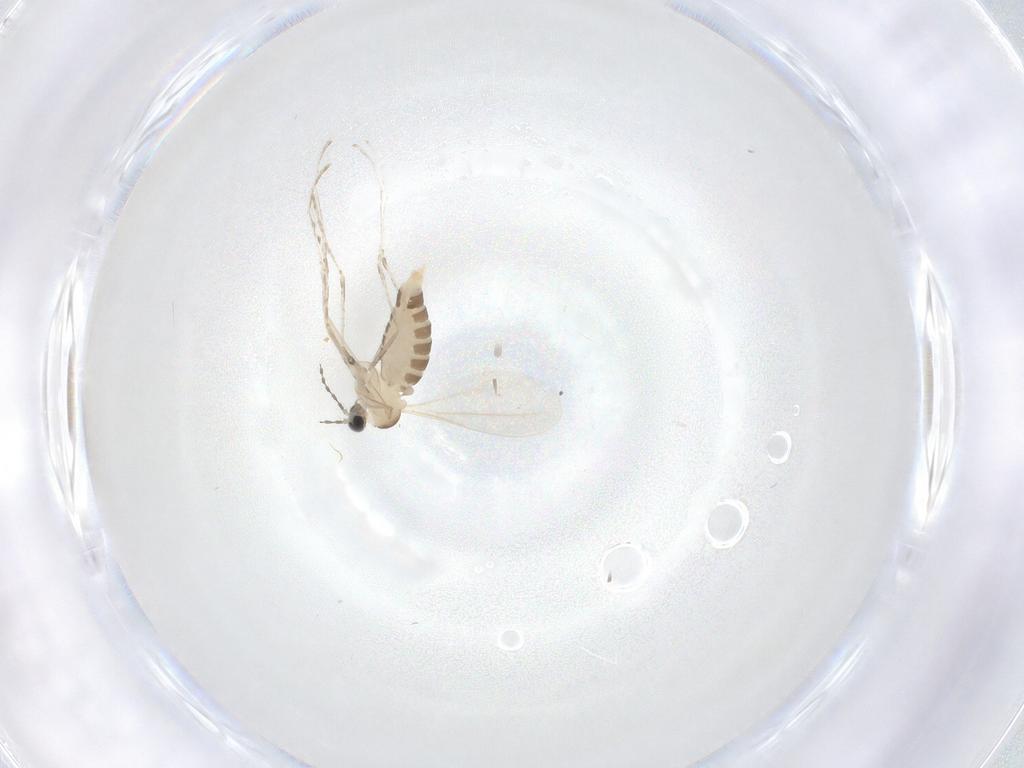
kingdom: Animalia
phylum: Arthropoda
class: Insecta
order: Diptera
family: Cecidomyiidae
